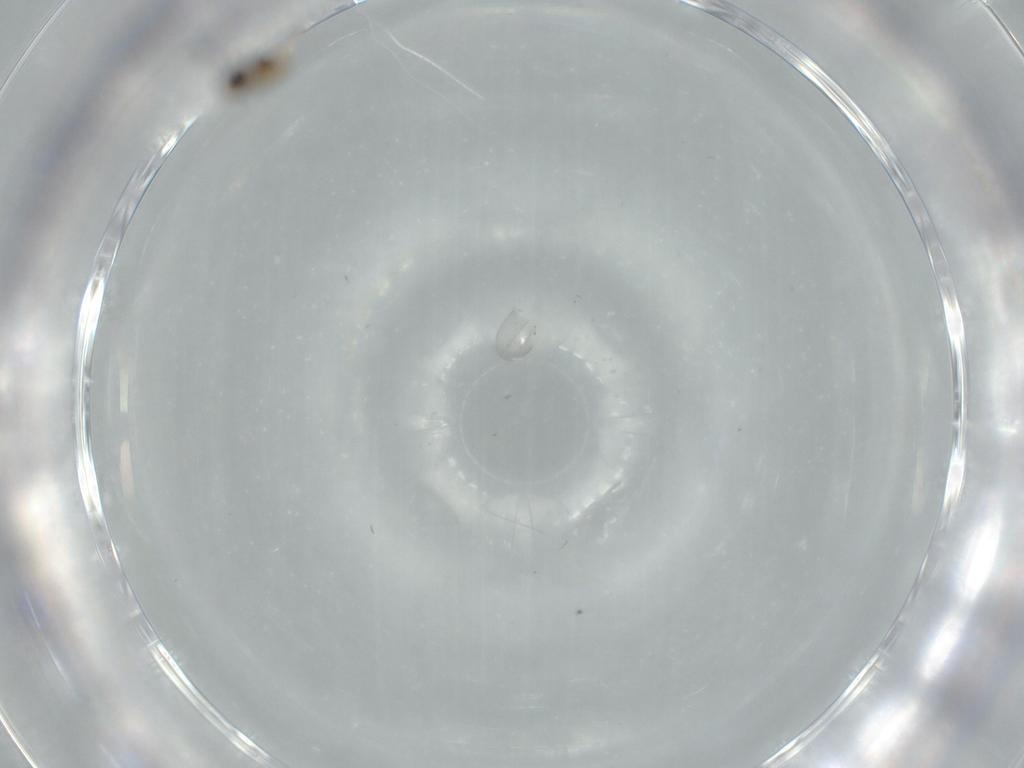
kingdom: Animalia
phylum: Arthropoda
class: Insecta
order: Diptera
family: Cecidomyiidae
